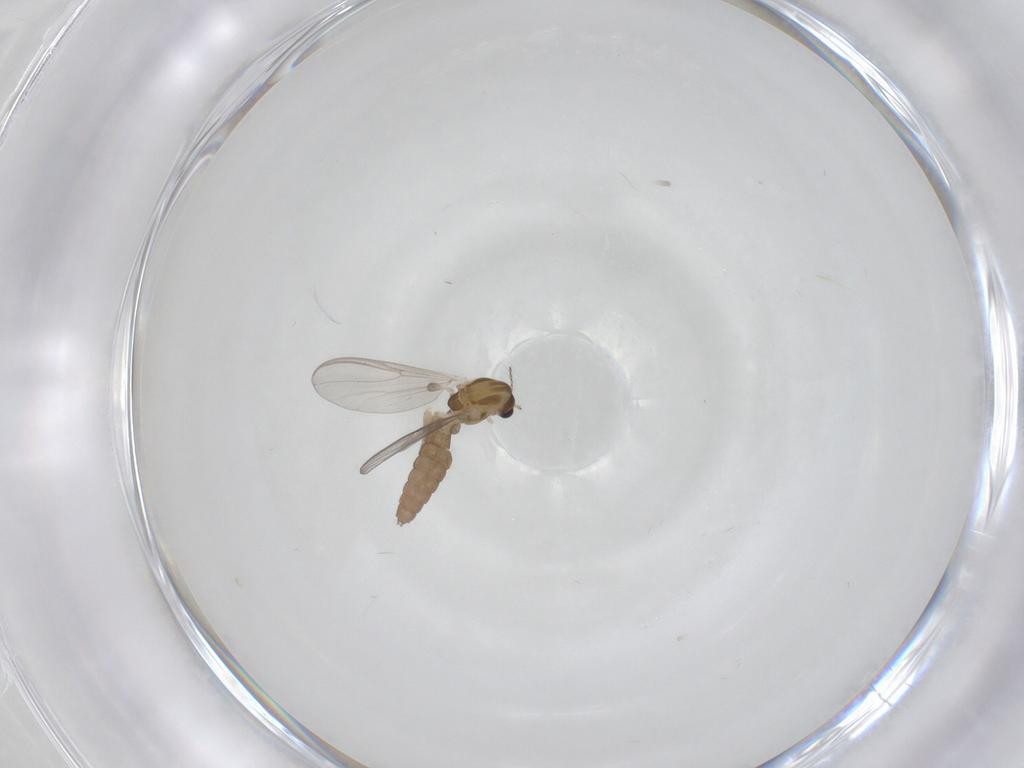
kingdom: Animalia
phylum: Arthropoda
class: Insecta
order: Diptera
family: Chironomidae
